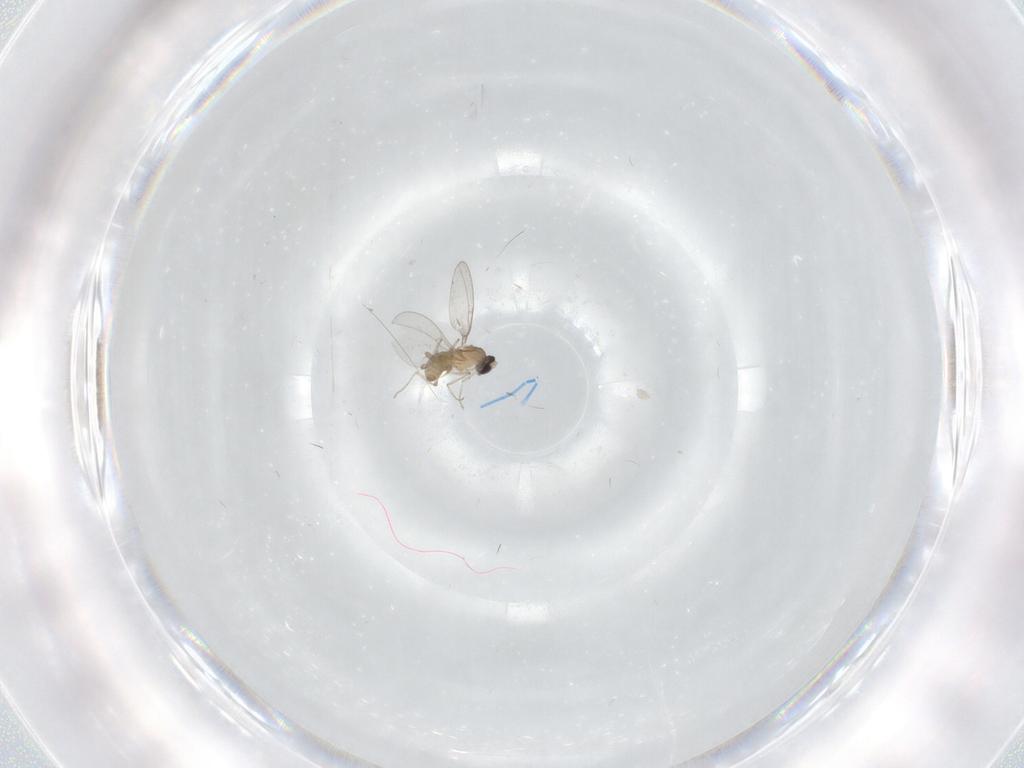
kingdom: Animalia
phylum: Arthropoda
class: Insecta
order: Diptera
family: Cecidomyiidae
